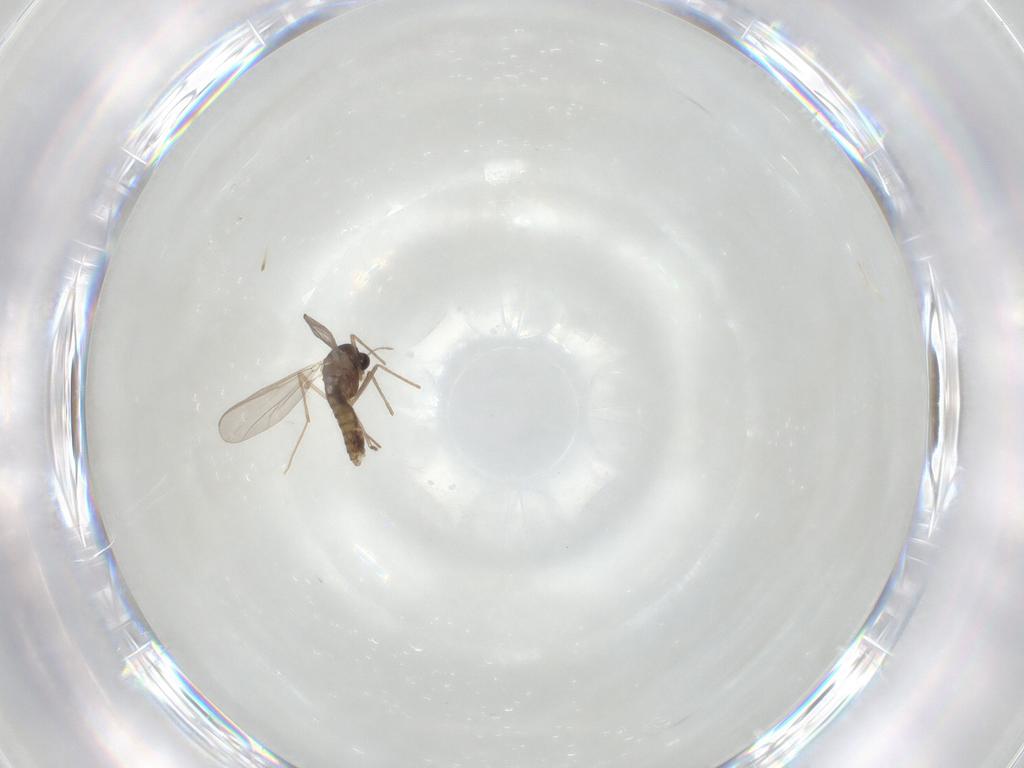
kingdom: Animalia
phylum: Arthropoda
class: Insecta
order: Diptera
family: Chironomidae
